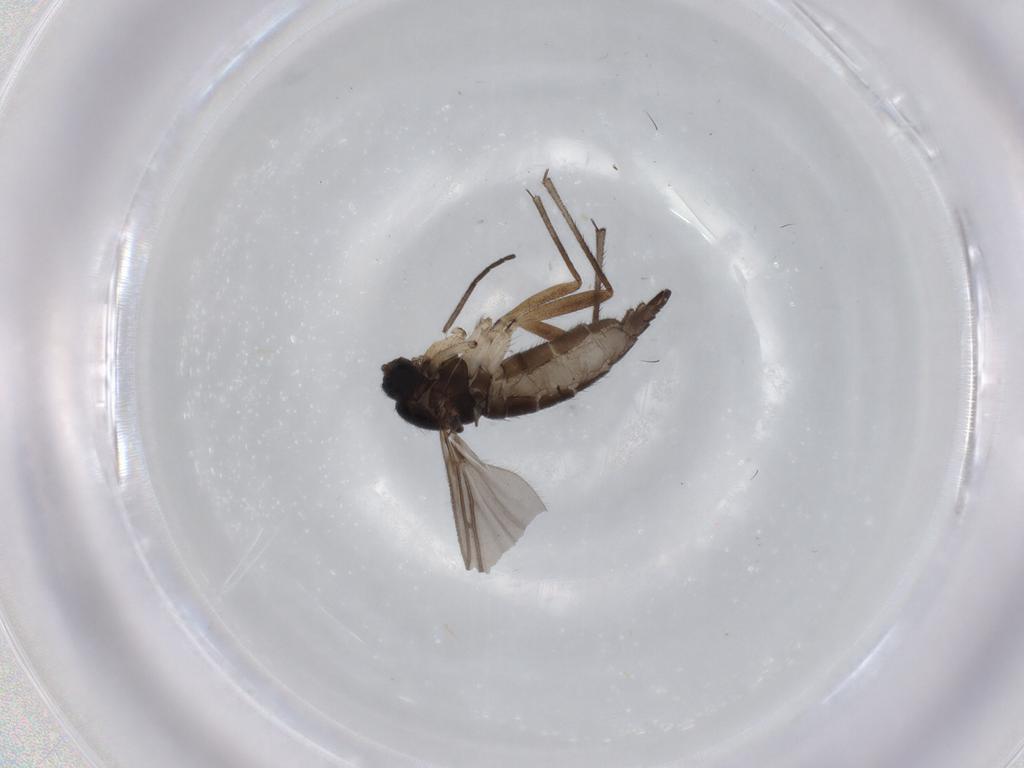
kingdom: Animalia
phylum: Arthropoda
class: Insecta
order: Diptera
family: Sciaridae
